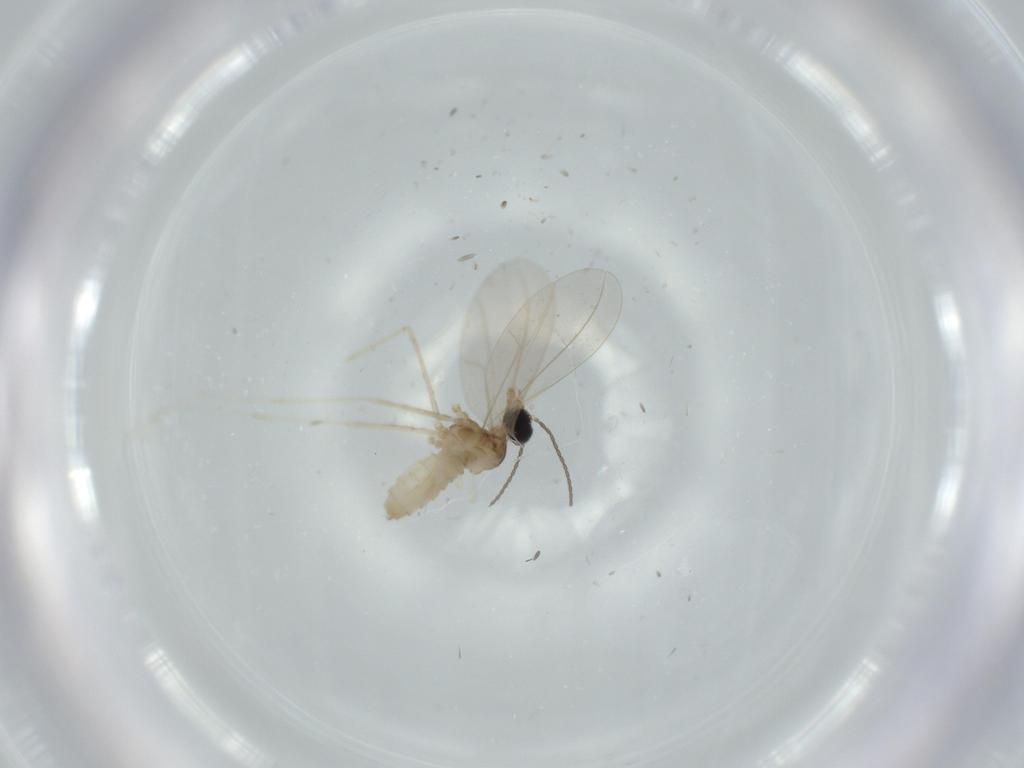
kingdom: Animalia
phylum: Arthropoda
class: Insecta
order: Diptera
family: Cecidomyiidae
